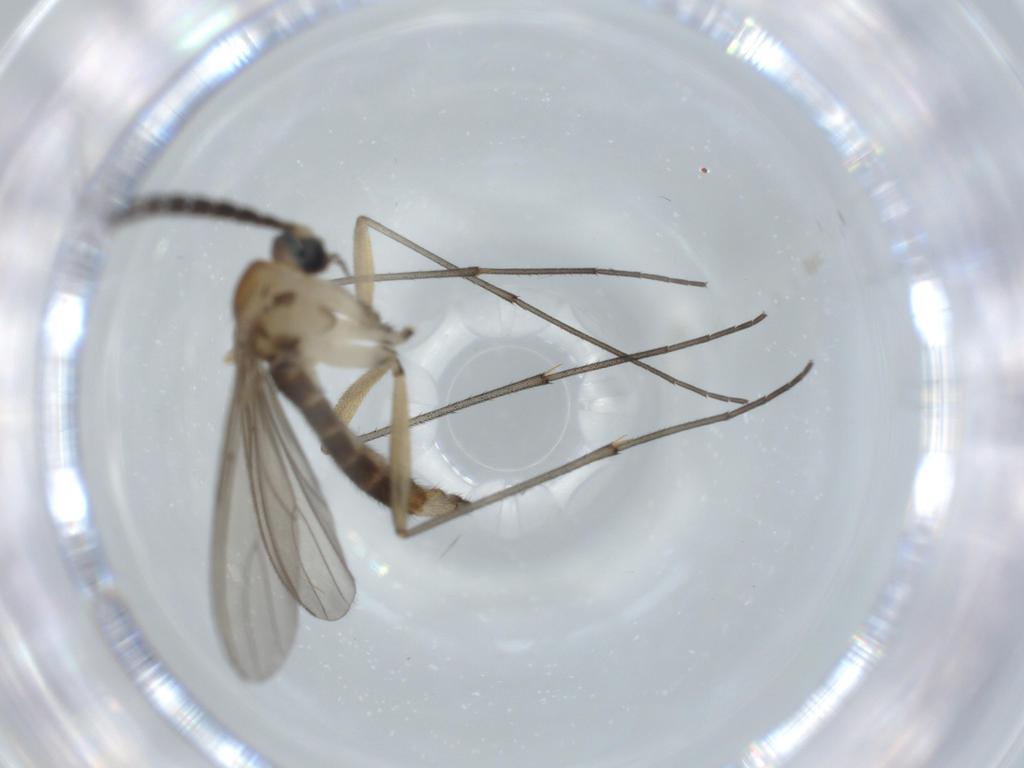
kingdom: Animalia
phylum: Arthropoda
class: Insecta
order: Diptera
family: Sciaridae
